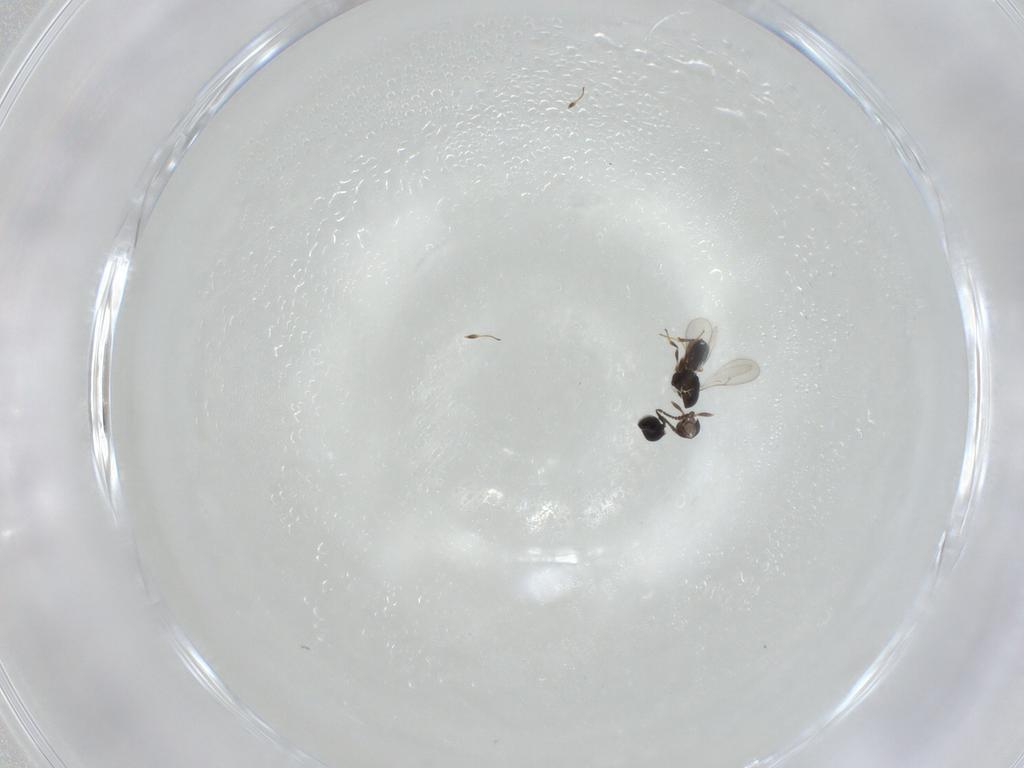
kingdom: Animalia
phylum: Arthropoda
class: Insecta
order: Hymenoptera
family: Scelionidae
